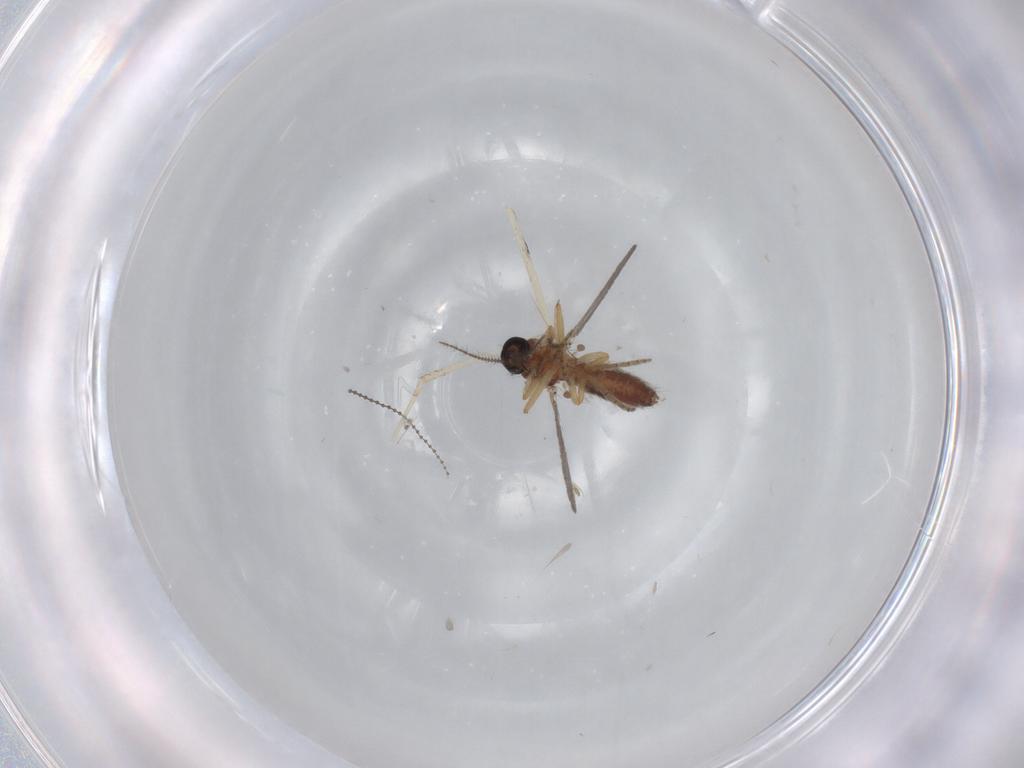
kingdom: Animalia
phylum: Arthropoda
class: Insecta
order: Diptera
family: Ceratopogonidae
